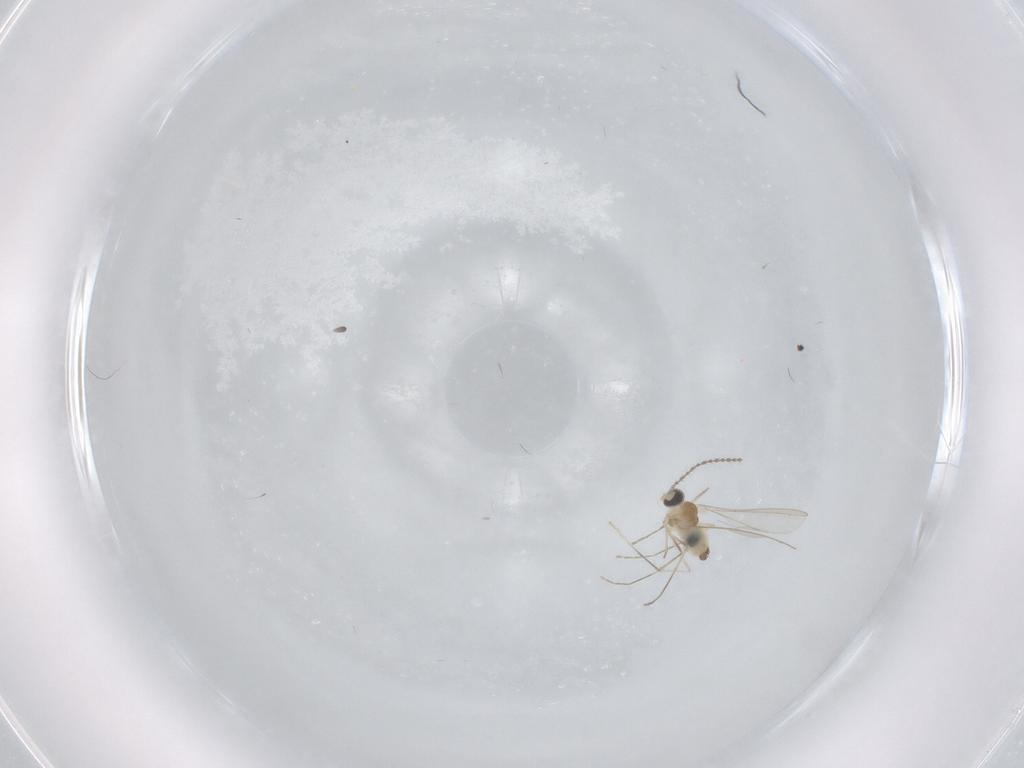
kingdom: Animalia
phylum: Arthropoda
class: Insecta
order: Diptera
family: Cecidomyiidae
